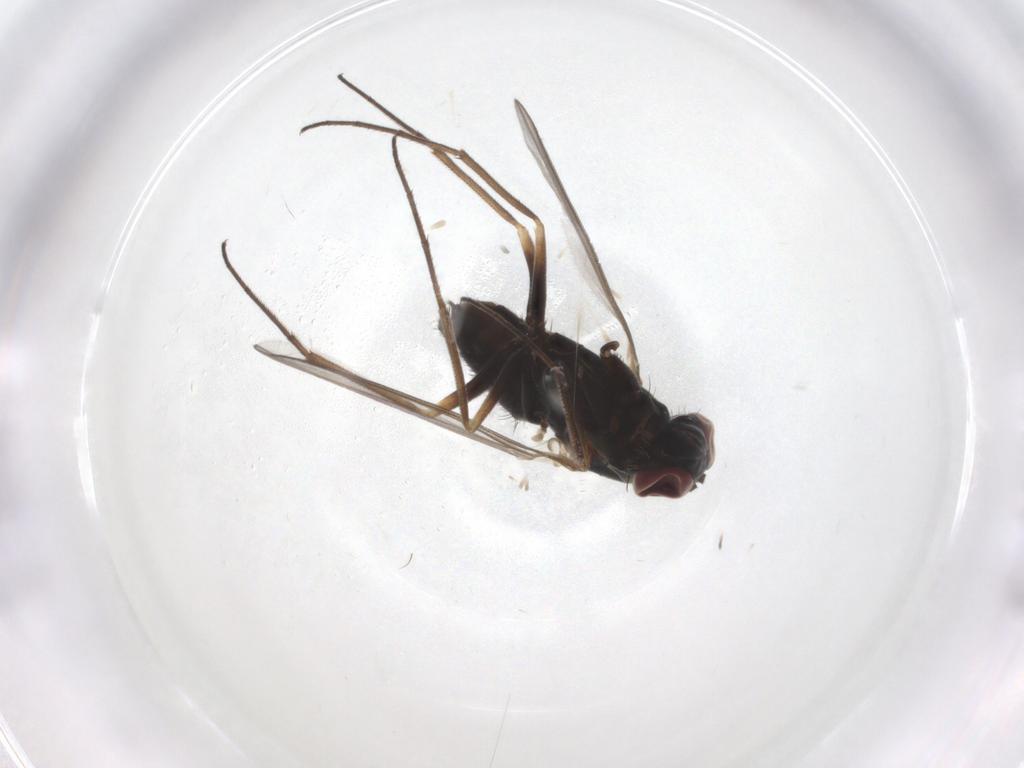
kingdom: Animalia
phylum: Arthropoda
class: Insecta
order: Diptera
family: Dolichopodidae
